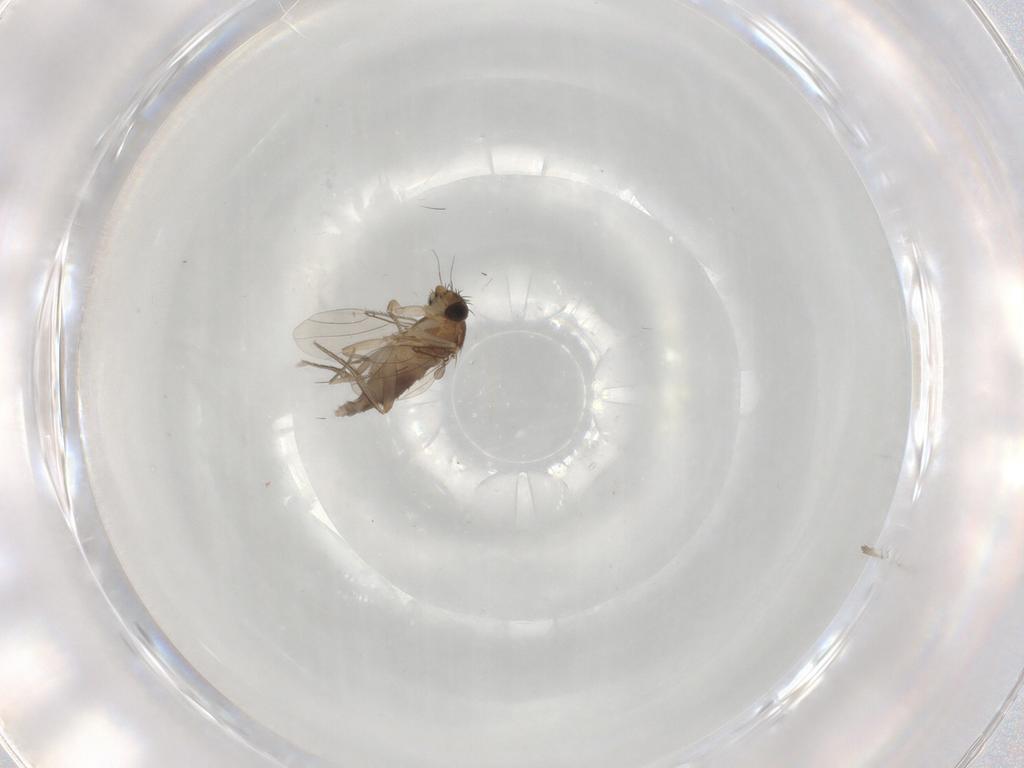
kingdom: Animalia
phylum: Arthropoda
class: Insecta
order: Diptera
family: Phoridae
